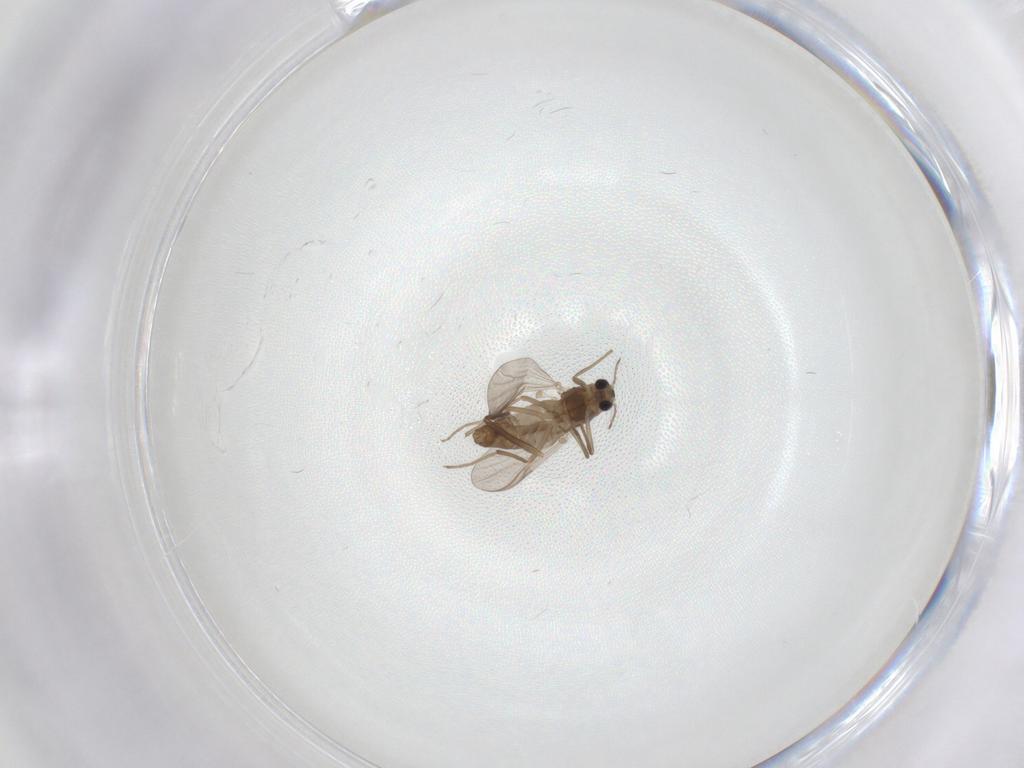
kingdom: Animalia
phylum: Arthropoda
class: Insecta
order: Diptera
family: Chironomidae
